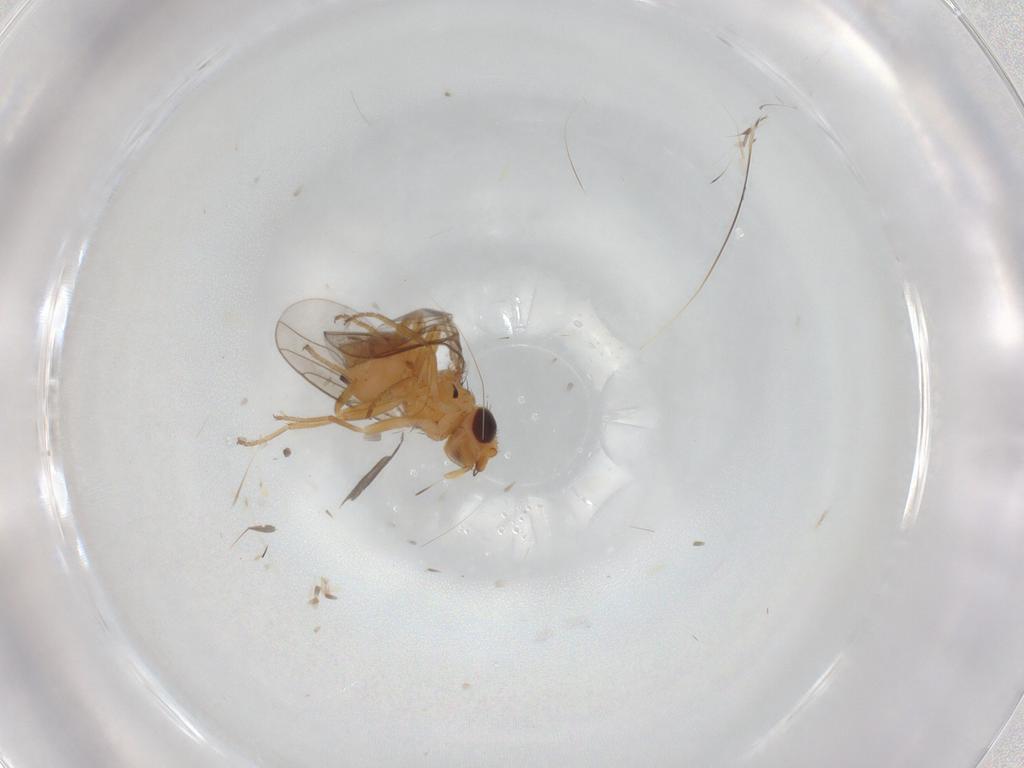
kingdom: Animalia
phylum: Arthropoda
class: Insecta
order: Diptera
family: Chloropidae
